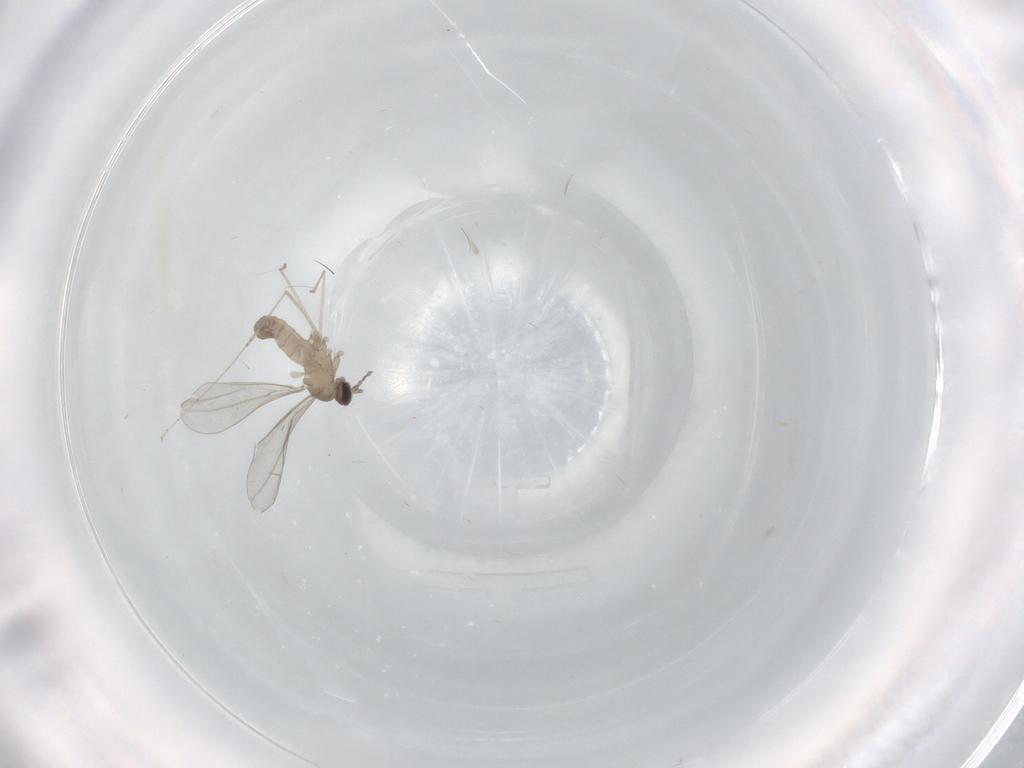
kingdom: Animalia
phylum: Arthropoda
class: Insecta
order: Diptera
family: Cecidomyiidae
